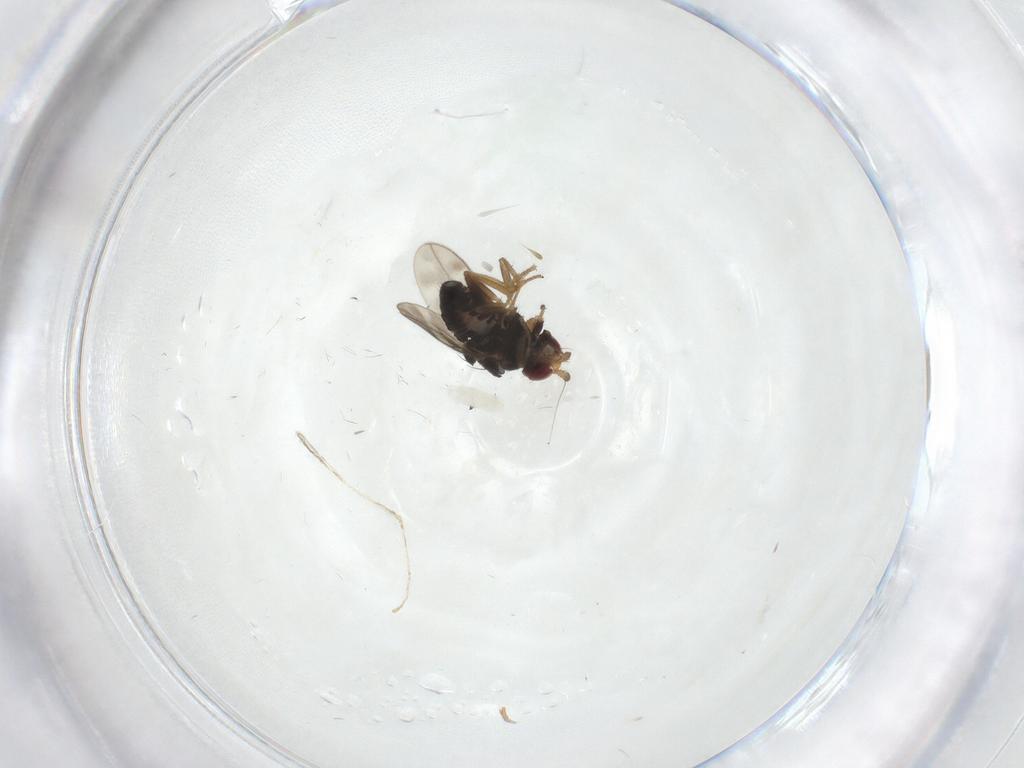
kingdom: Animalia
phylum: Arthropoda
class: Insecta
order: Diptera
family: Sphaeroceridae
